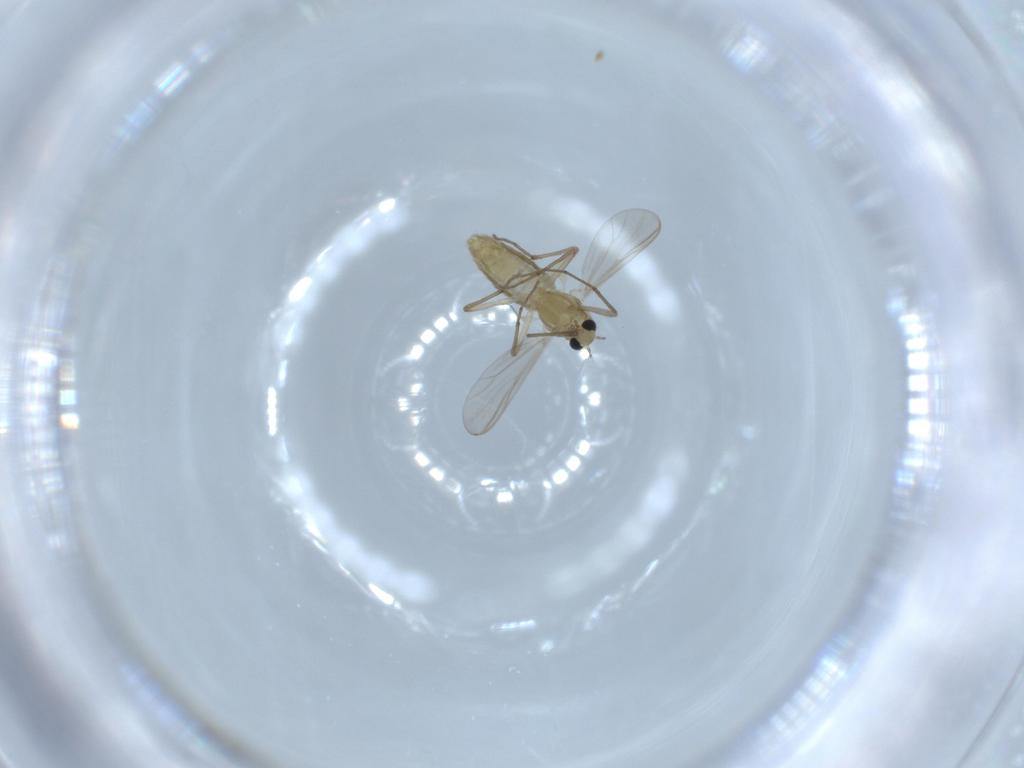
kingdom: Animalia
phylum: Arthropoda
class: Insecta
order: Diptera
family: Chironomidae
